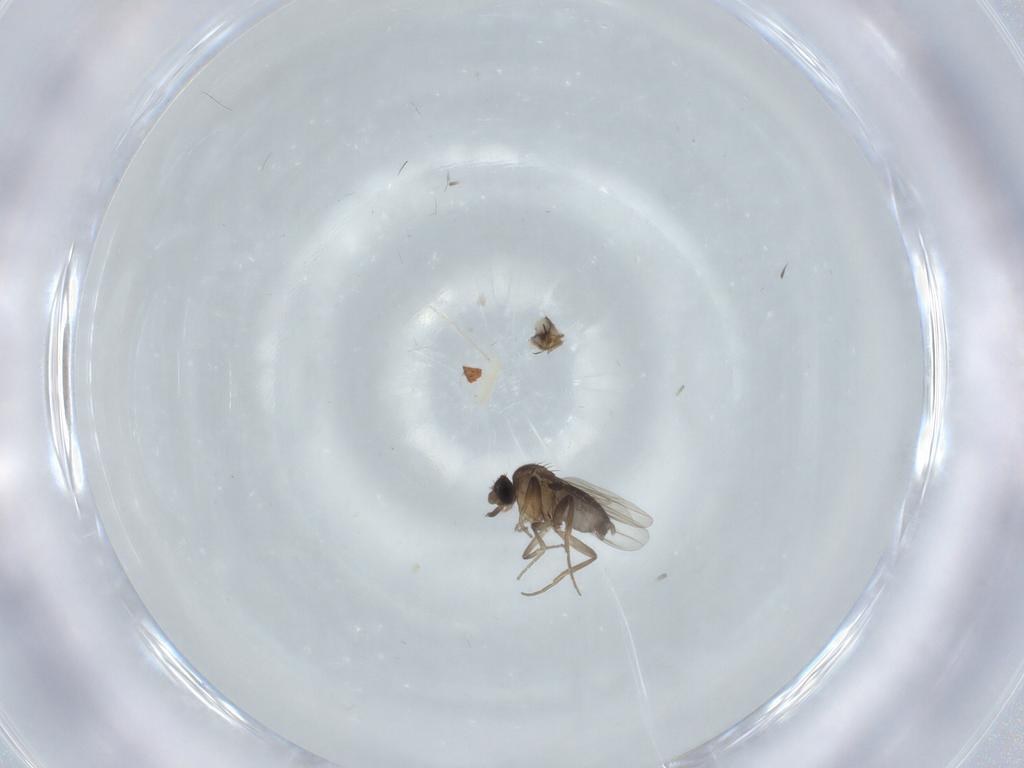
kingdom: Animalia
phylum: Arthropoda
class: Insecta
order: Diptera
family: Phoridae
